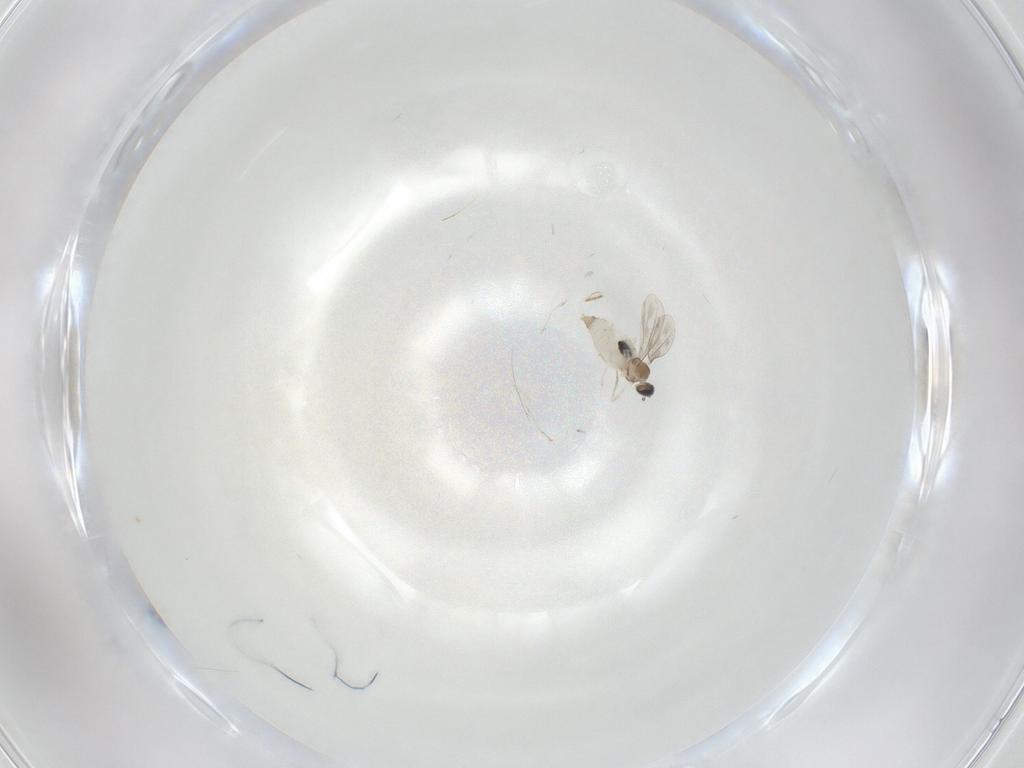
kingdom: Animalia
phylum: Arthropoda
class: Insecta
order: Diptera
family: Cecidomyiidae
